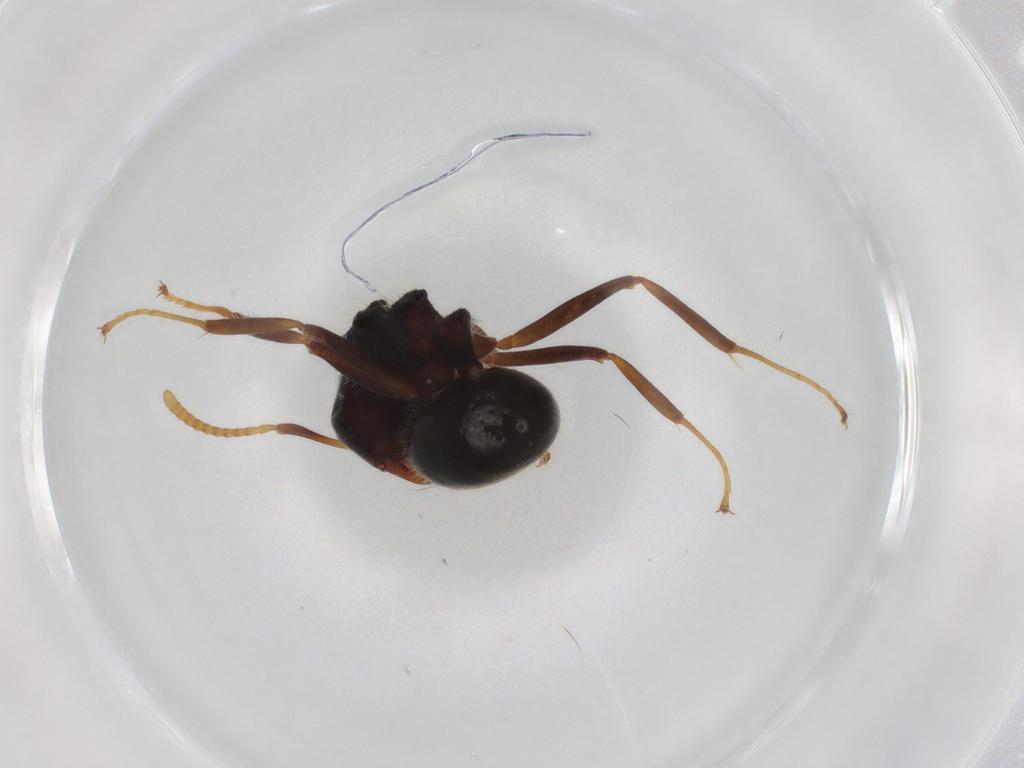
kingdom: Animalia
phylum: Arthropoda
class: Insecta
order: Hymenoptera
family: Formicidae
